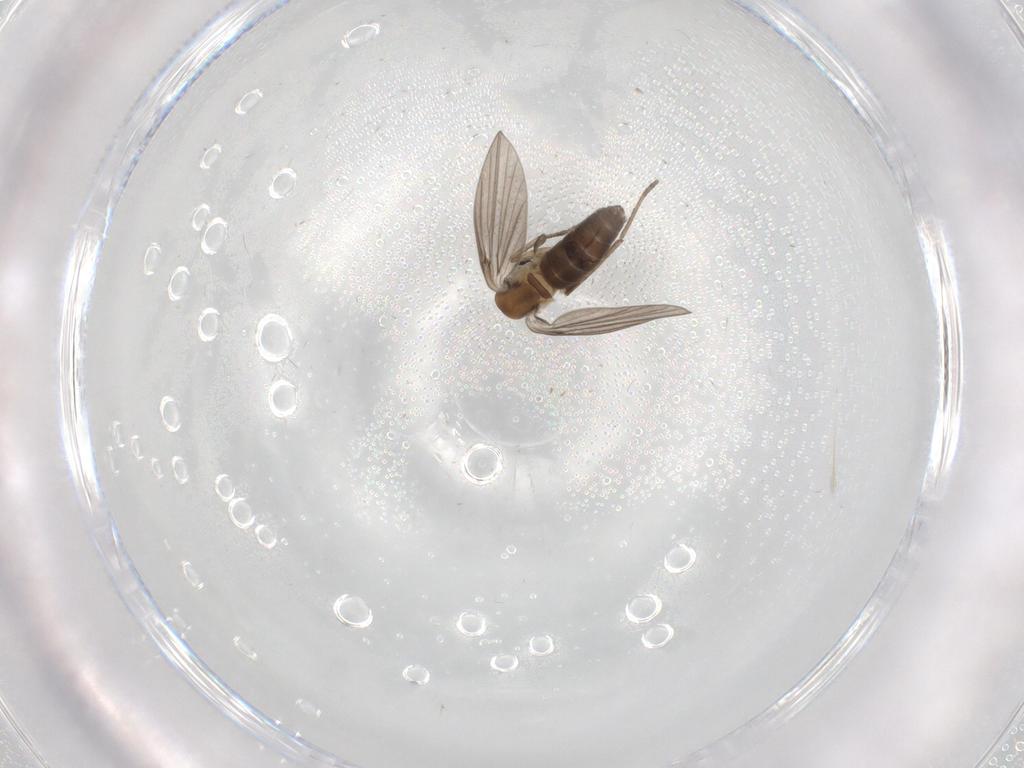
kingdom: Animalia
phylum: Arthropoda
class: Insecta
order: Diptera
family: Psychodidae
